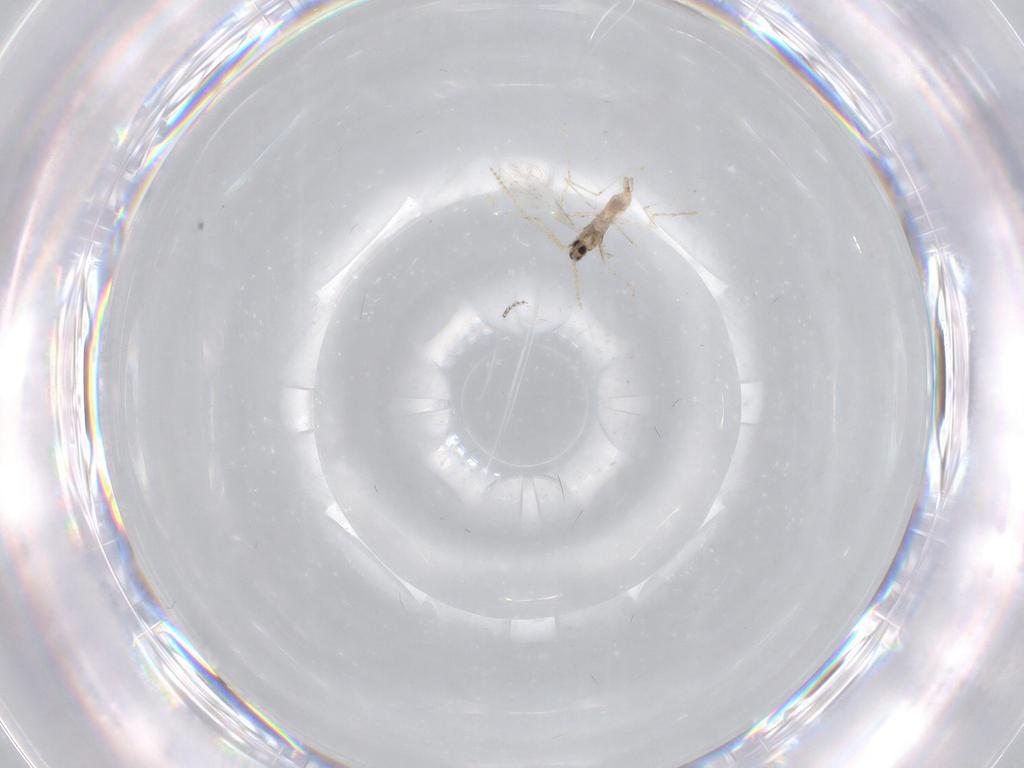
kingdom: Animalia
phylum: Arthropoda
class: Insecta
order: Diptera
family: Cecidomyiidae
